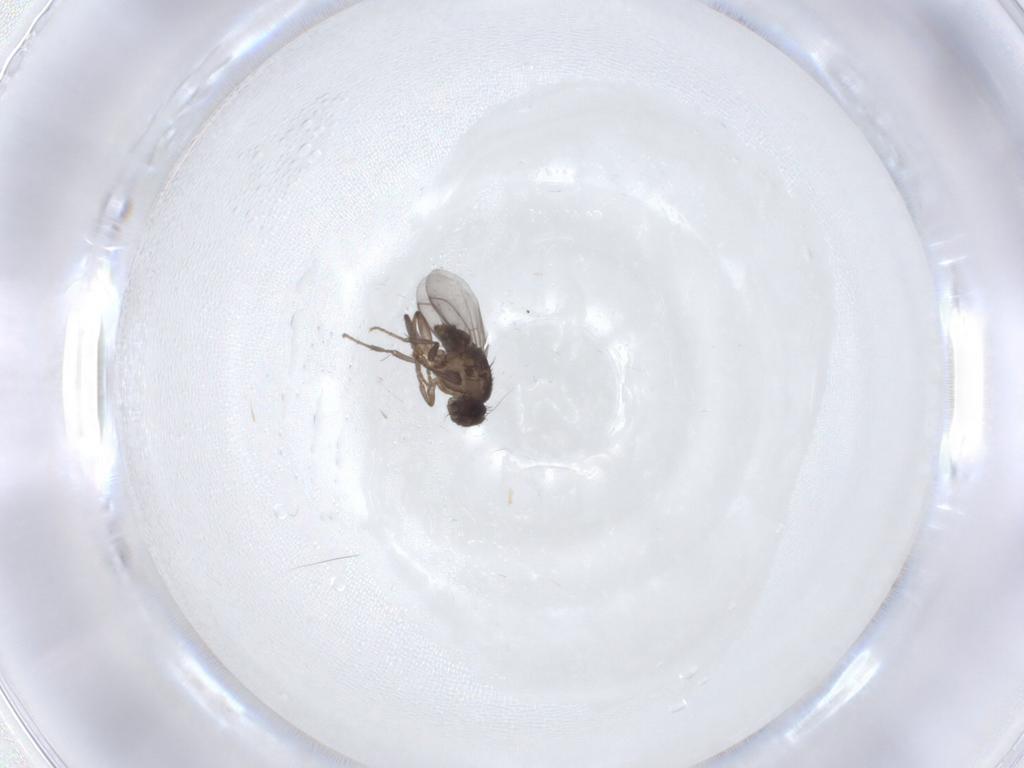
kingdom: Animalia
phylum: Arthropoda
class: Insecta
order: Diptera
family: Sphaeroceridae
